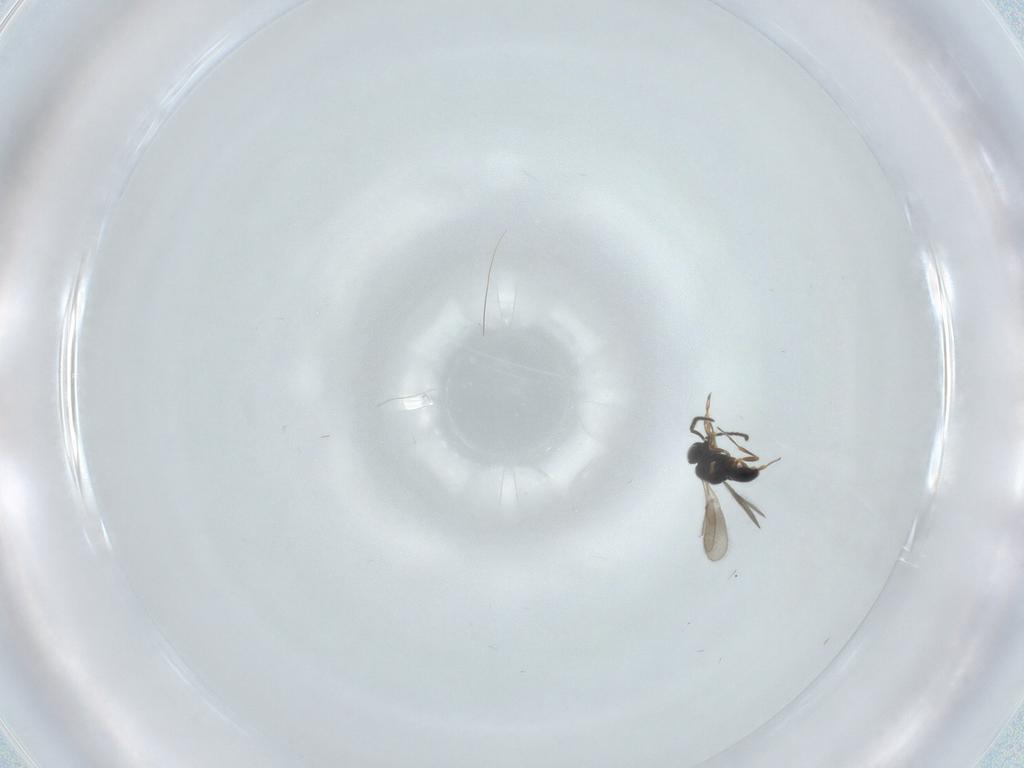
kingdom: Animalia
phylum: Arthropoda
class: Insecta
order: Hymenoptera
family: Scelionidae
